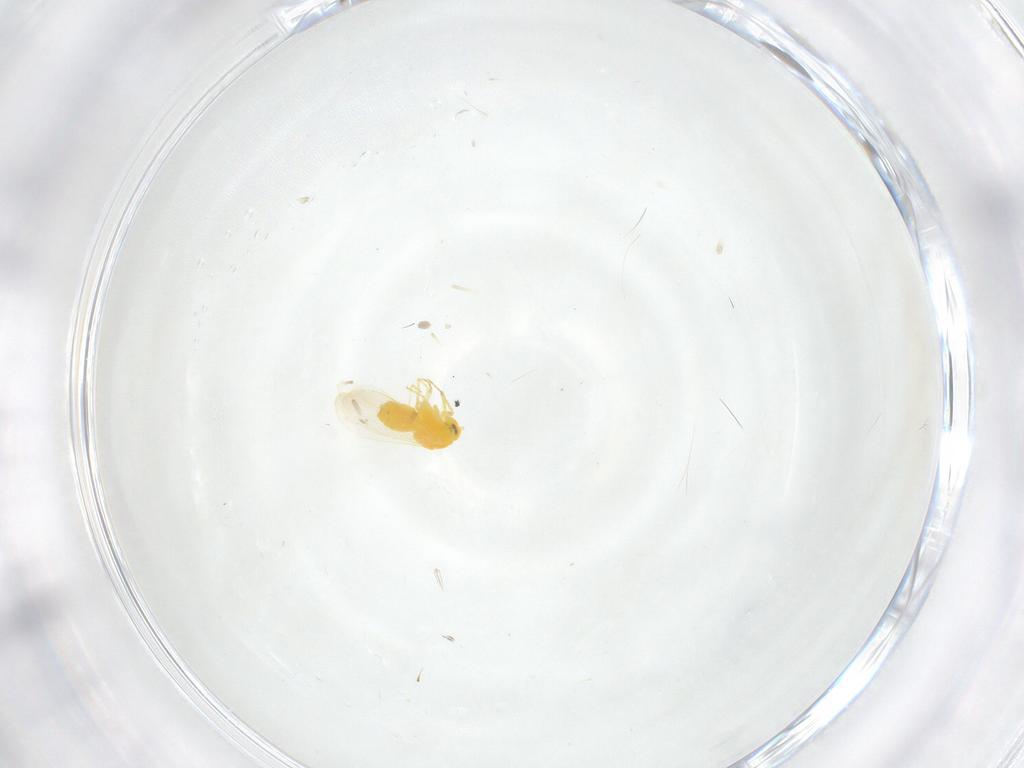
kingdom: Animalia
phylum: Arthropoda
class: Insecta
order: Hemiptera
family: Aleyrodidae
